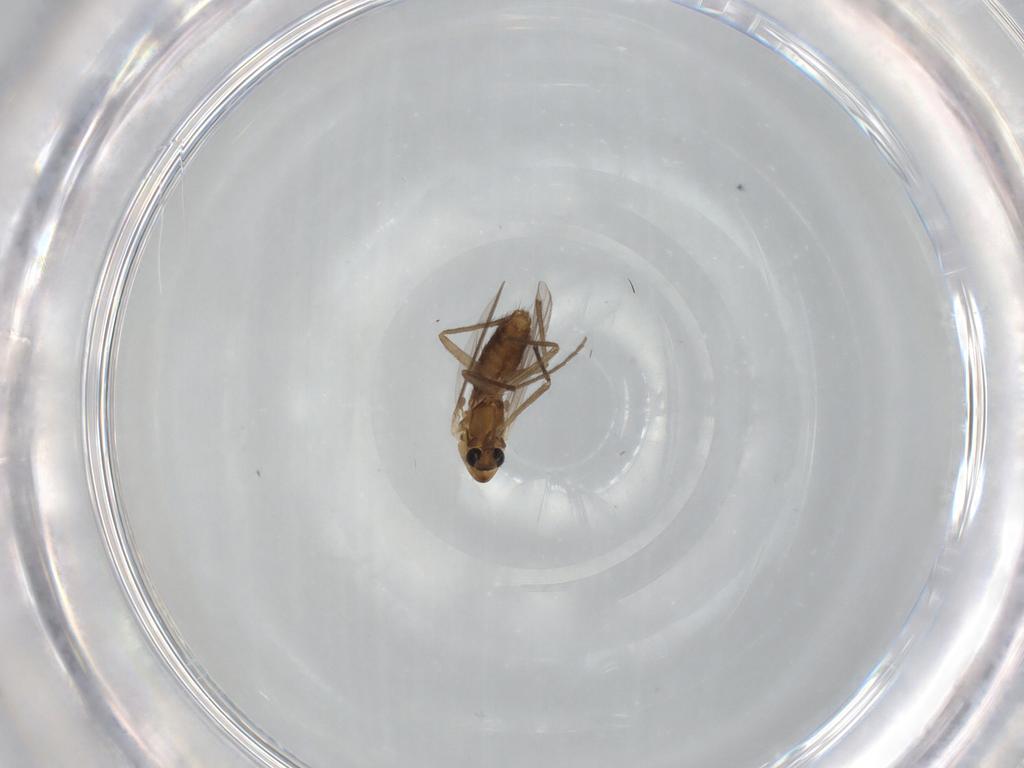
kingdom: Animalia
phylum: Arthropoda
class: Insecta
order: Diptera
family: Chironomidae
